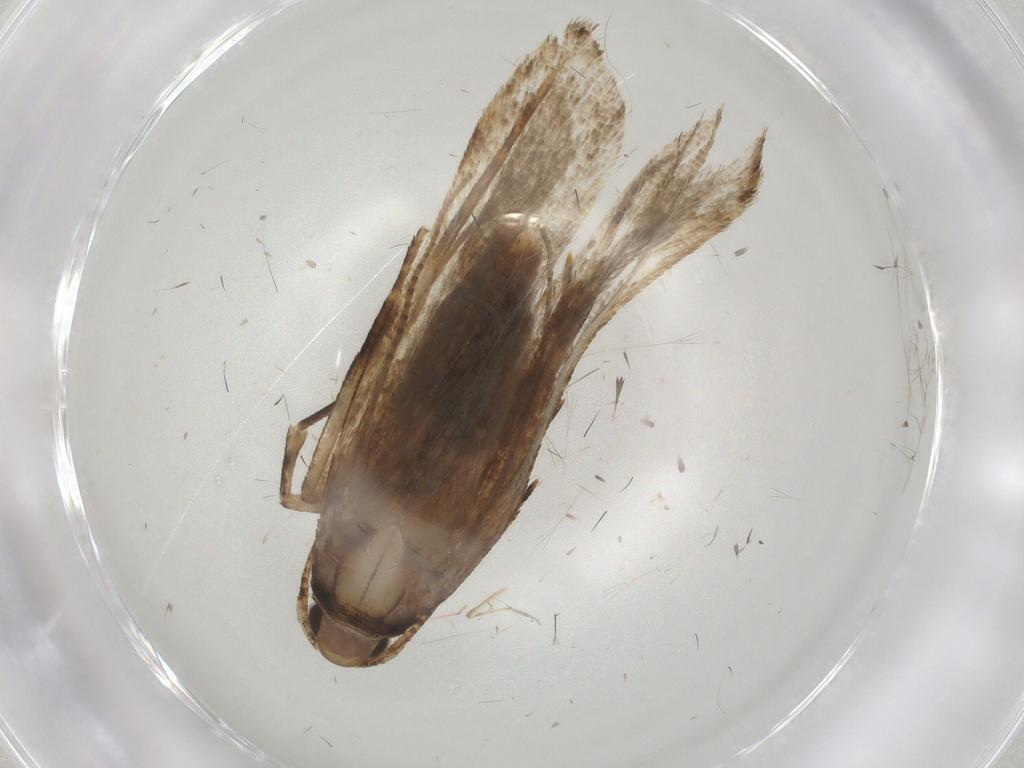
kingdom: Animalia
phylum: Arthropoda
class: Insecta
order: Lepidoptera
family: Gelechiidae
